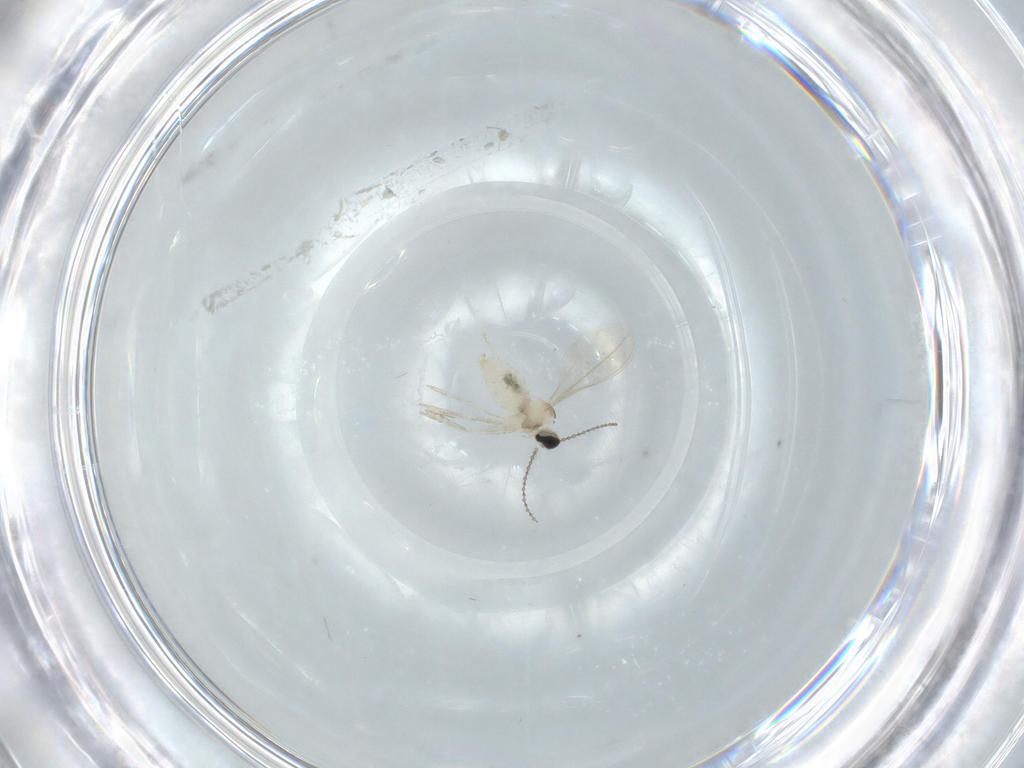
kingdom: Animalia
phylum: Arthropoda
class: Insecta
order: Diptera
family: Cecidomyiidae
